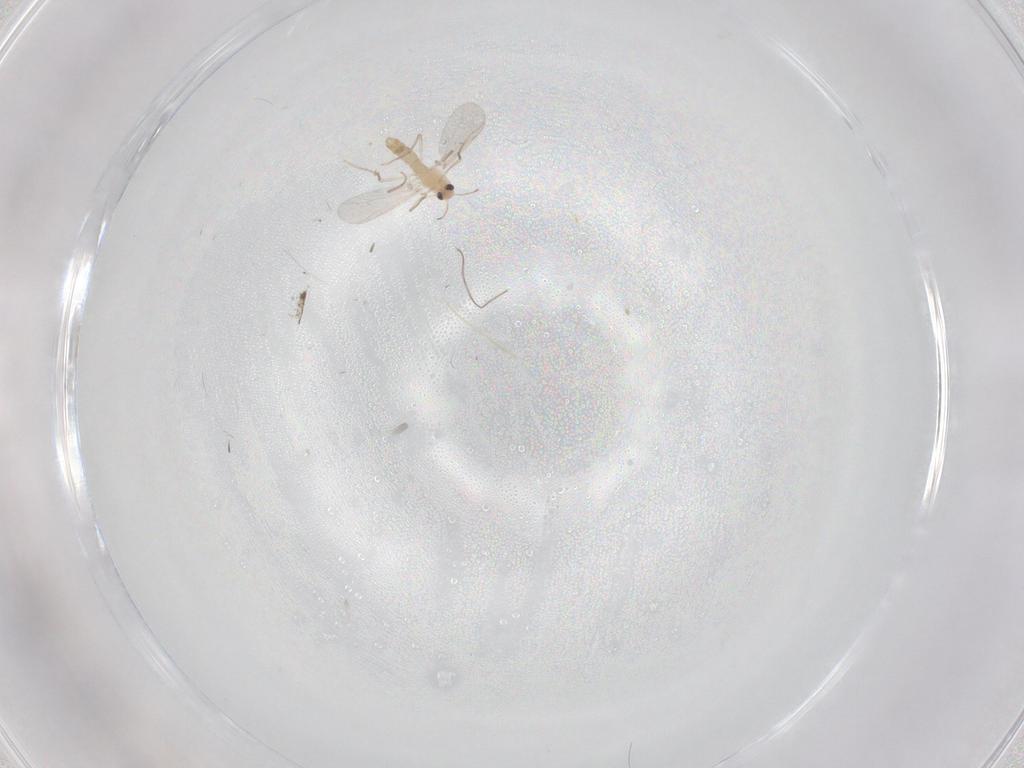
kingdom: Animalia
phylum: Arthropoda
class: Insecta
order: Diptera
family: Chironomidae
